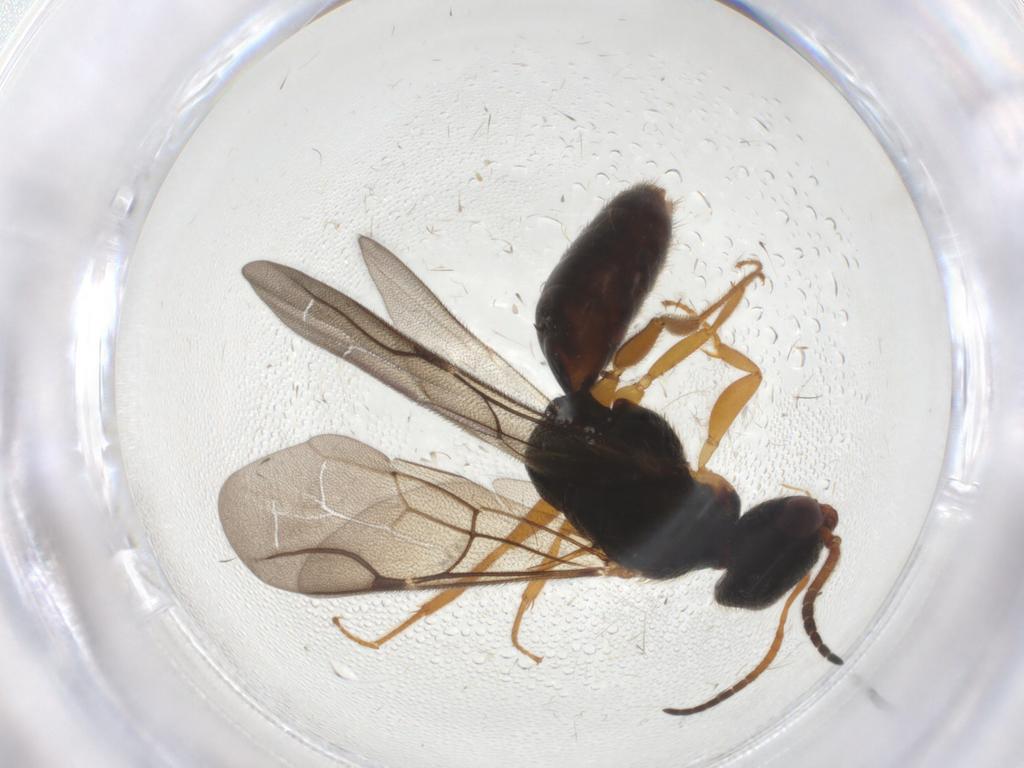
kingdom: Animalia
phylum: Arthropoda
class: Insecta
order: Hymenoptera
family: Bethylidae
